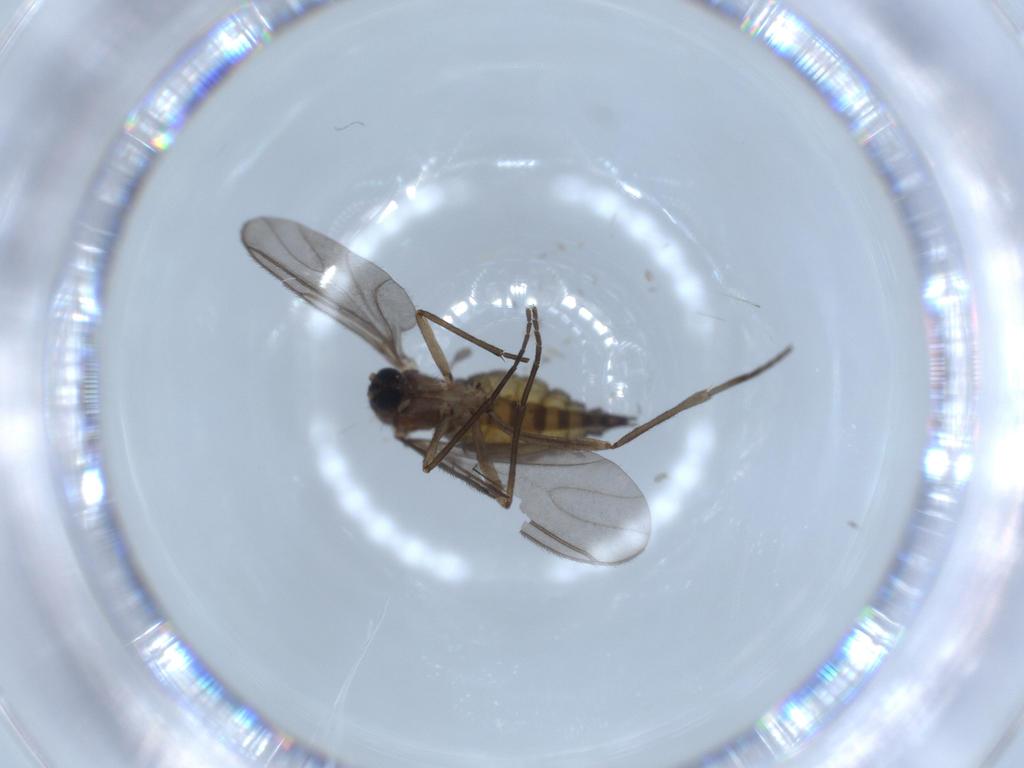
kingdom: Animalia
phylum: Arthropoda
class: Insecta
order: Diptera
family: Sciaridae
